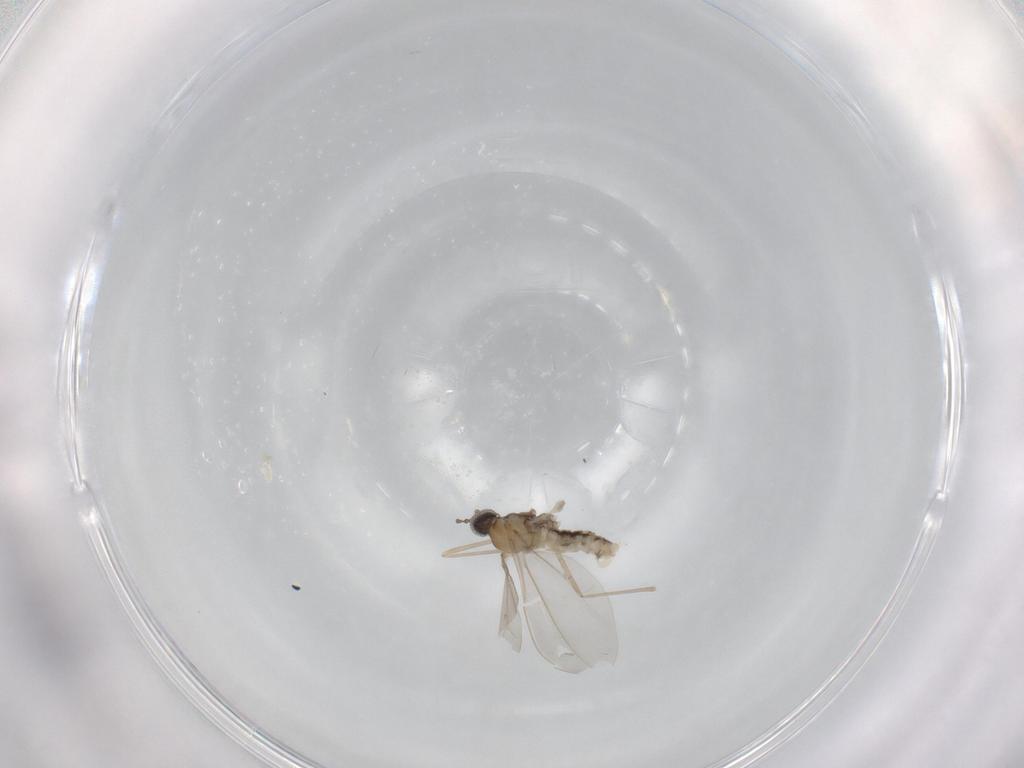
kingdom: Animalia
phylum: Arthropoda
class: Insecta
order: Diptera
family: Cecidomyiidae
